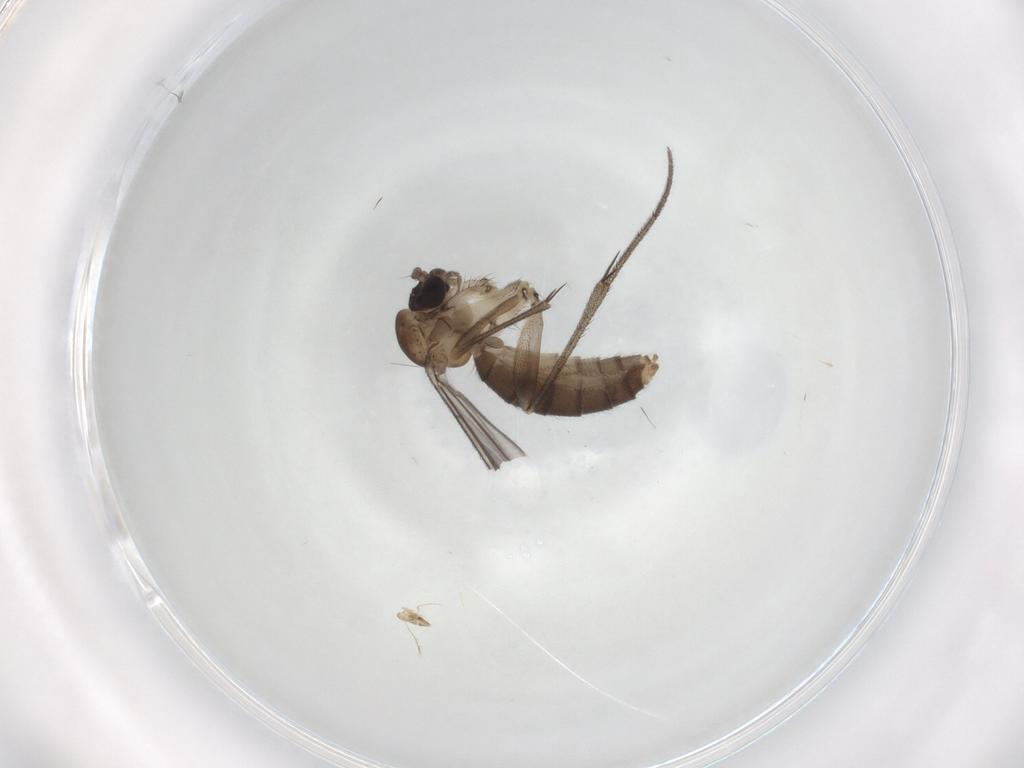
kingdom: Animalia
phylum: Arthropoda
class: Insecta
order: Diptera
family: Mycetophilidae
